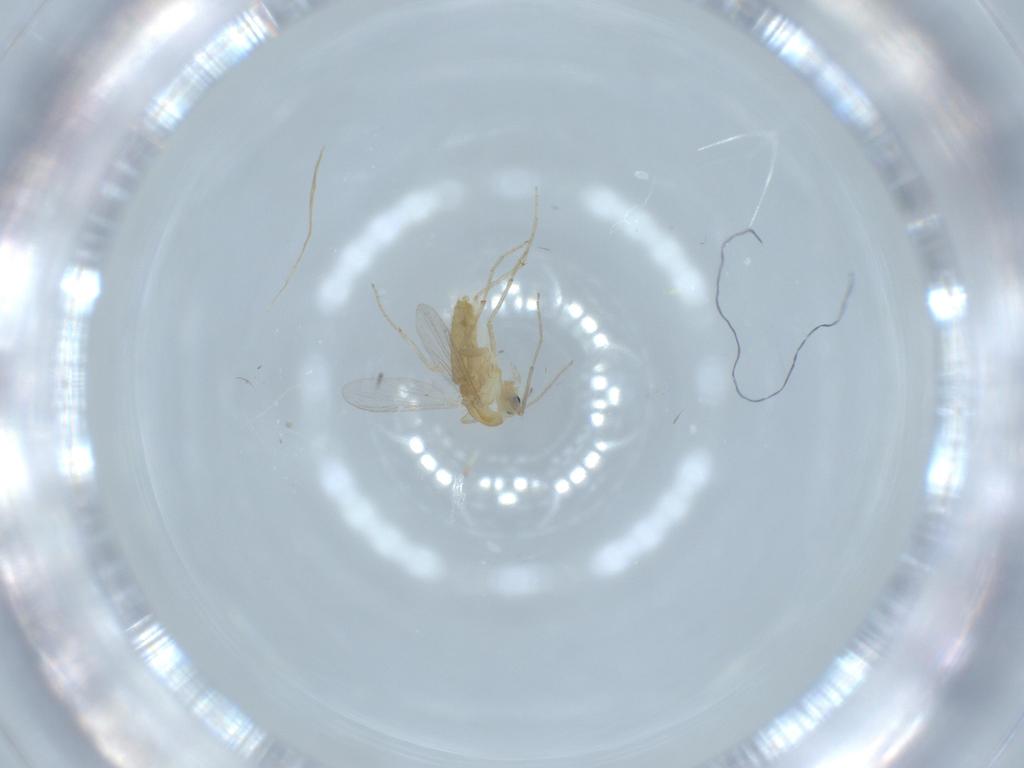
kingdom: Animalia
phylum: Arthropoda
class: Insecta
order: Diptera
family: Chironomidae
